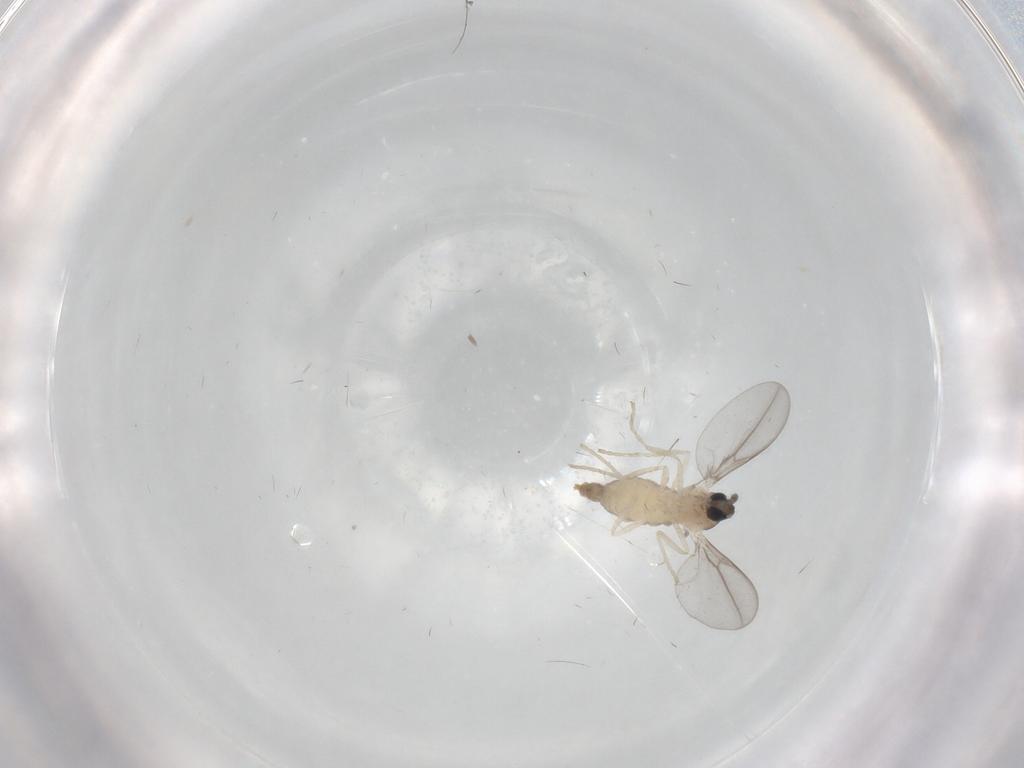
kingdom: Animalia
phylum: Arthropoda
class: Insecta
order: Diptera
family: Cecidomyiidae
